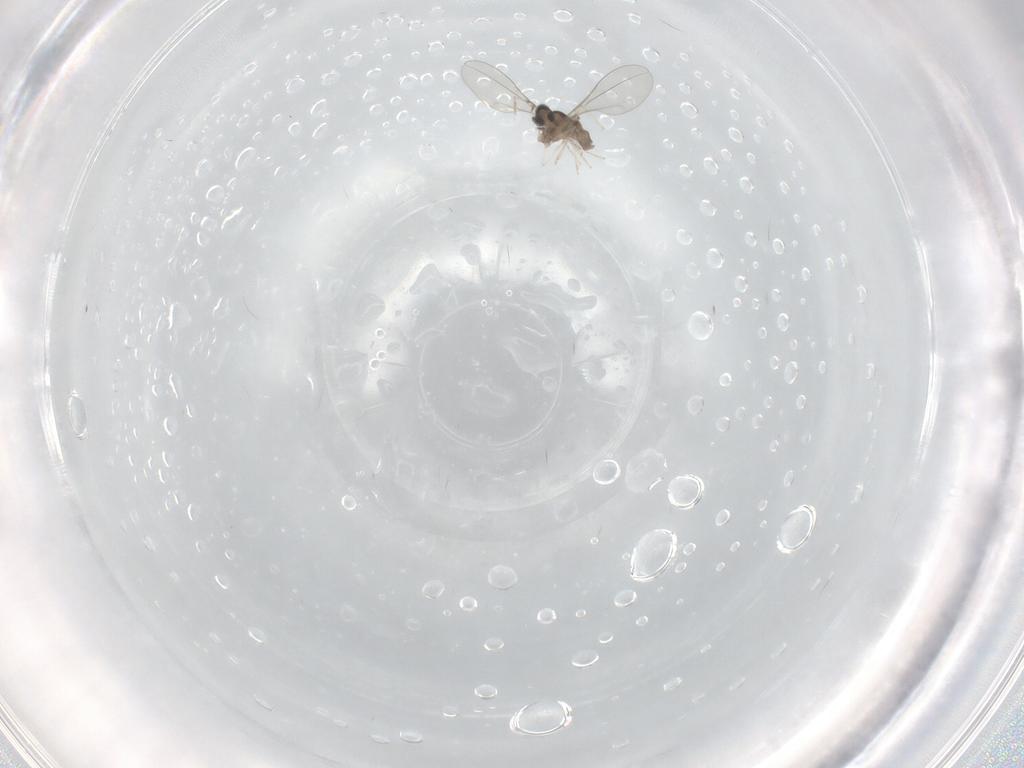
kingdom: Animalia
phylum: Arthropoda
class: Insecta
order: Diptera
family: Cecidomyiidae
